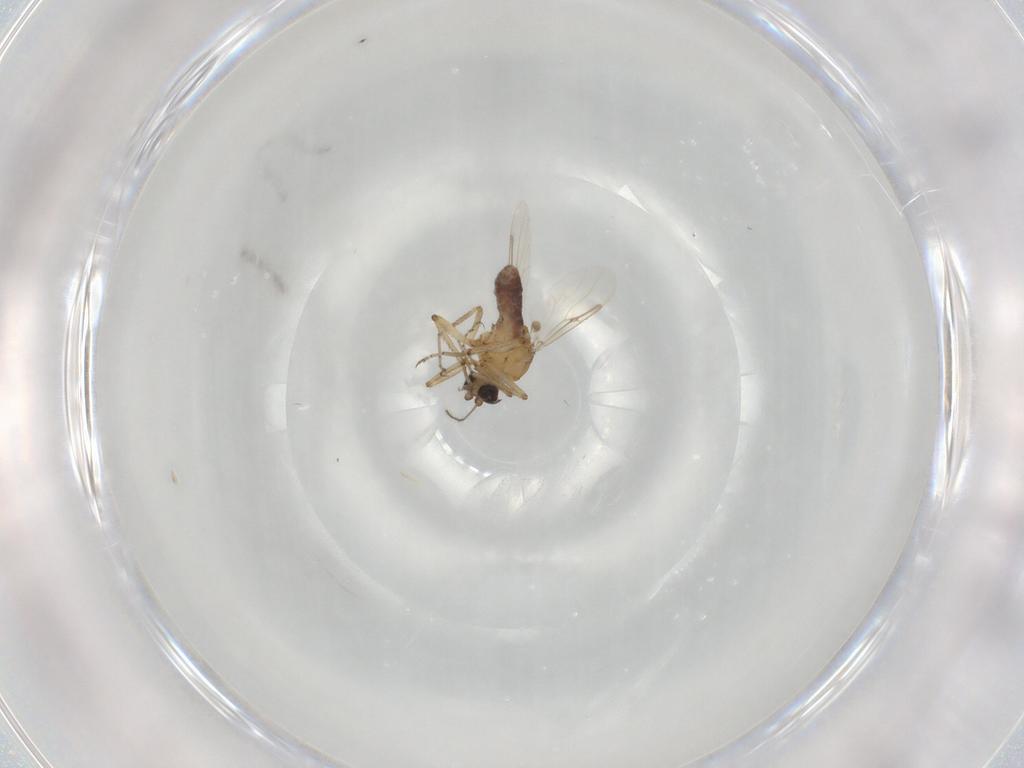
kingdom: Animalia
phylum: Arthropoda
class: Insecta
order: Diptera
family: Ceratopogonidae
